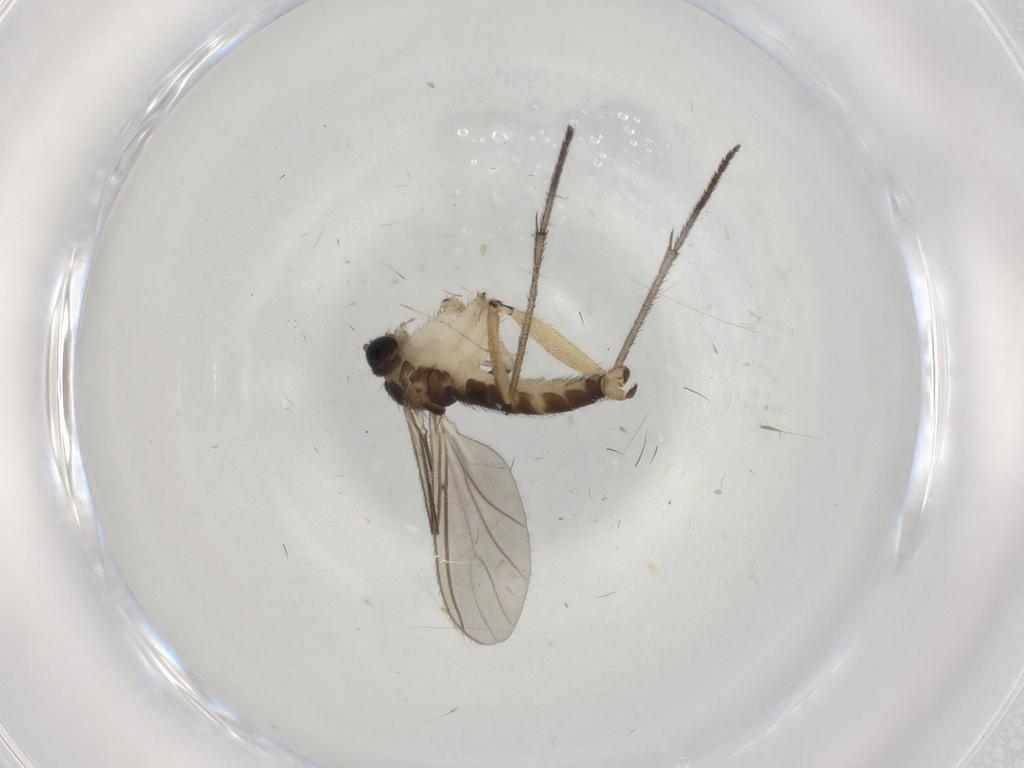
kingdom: Animalia
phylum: Arthropoda
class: Insecta
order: Diptera
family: Sciaridae
